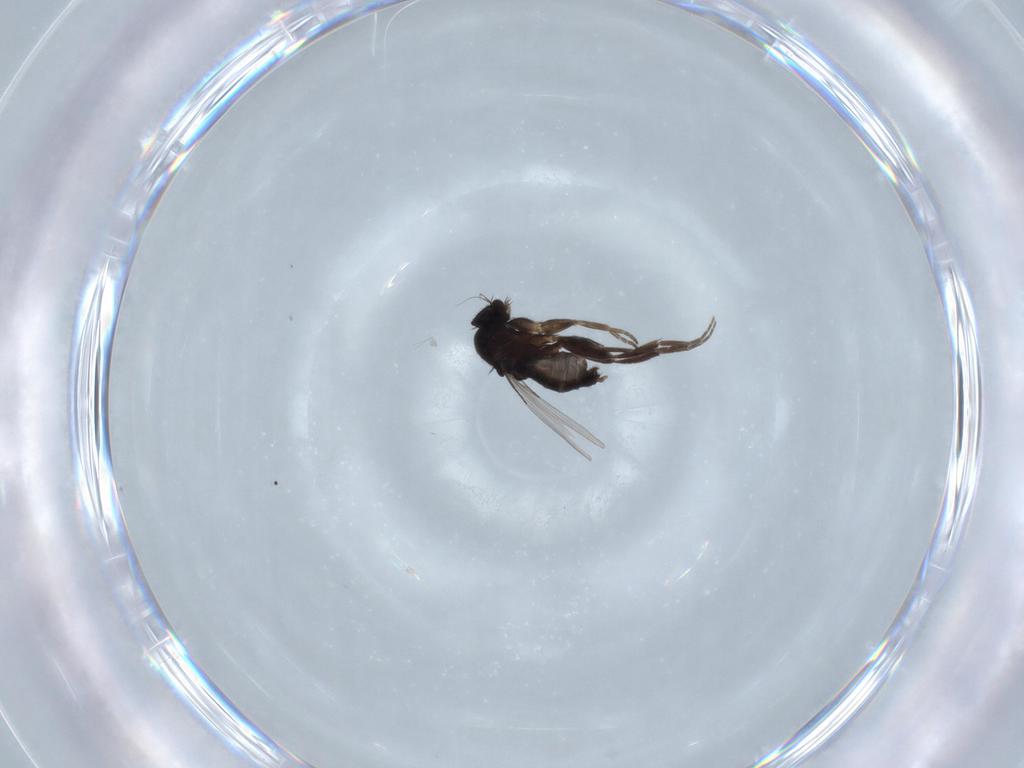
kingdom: Animalia
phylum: Arthropoda
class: Insecta
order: Diptera
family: Phoridae
